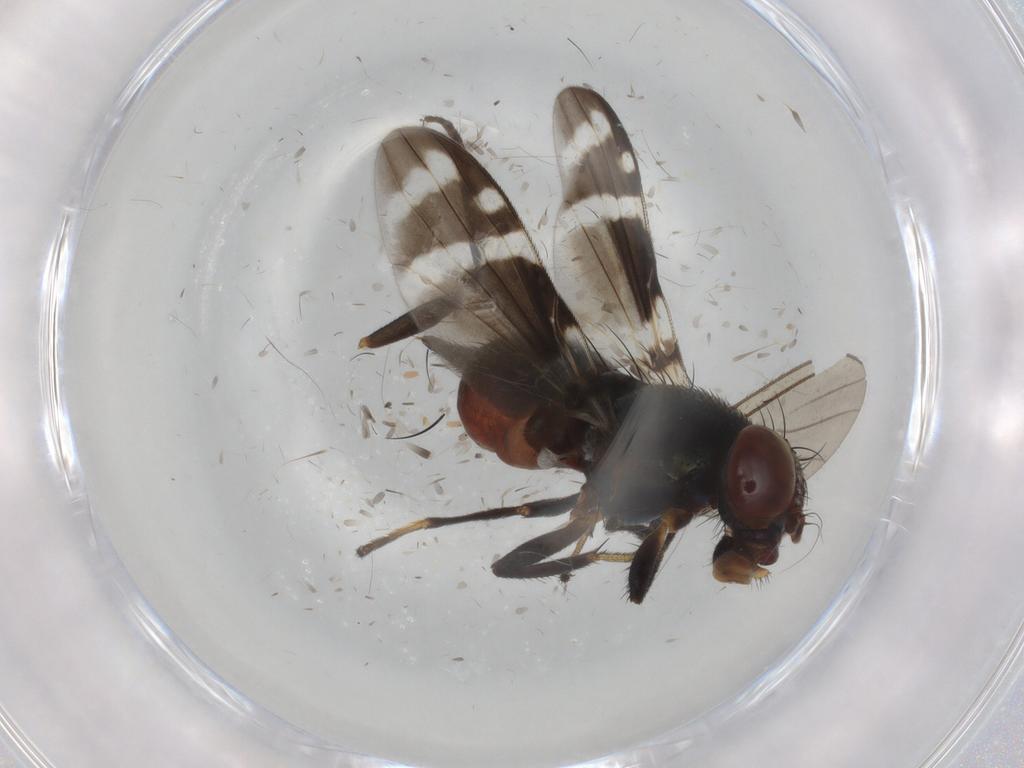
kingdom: Animalia
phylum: Arthropoda
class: Insecta
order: Diptera
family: Ulidiidae
